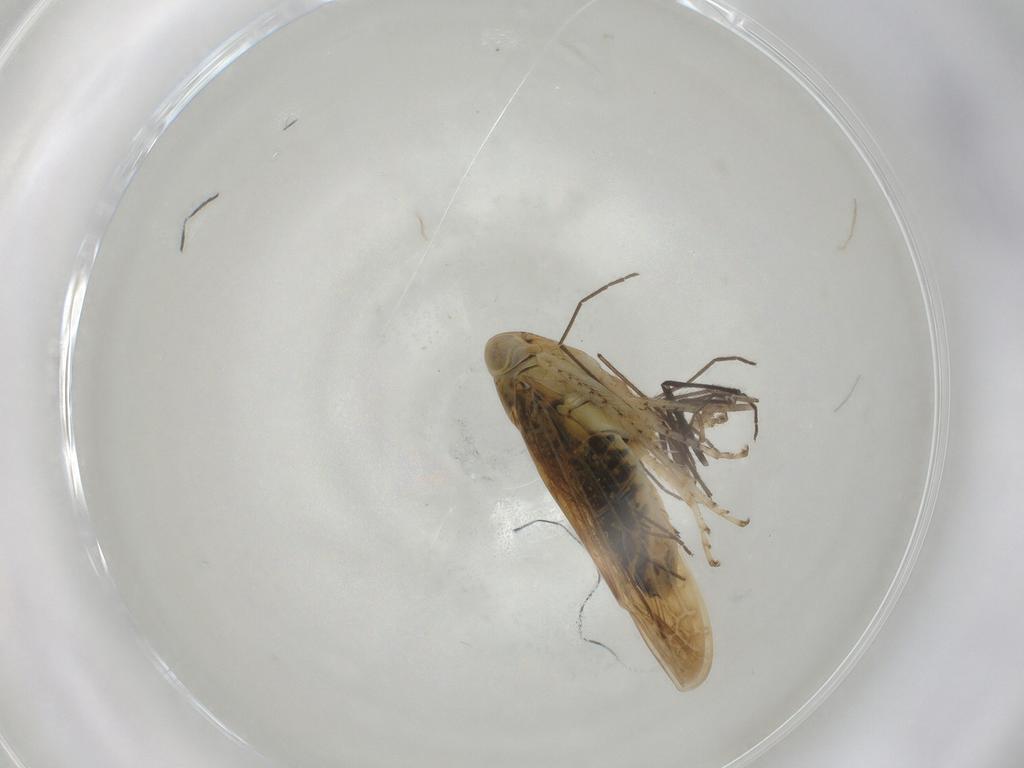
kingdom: Animalia
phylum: Arthropoda
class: Insecta
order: Hemiptera
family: Cicadellidae
